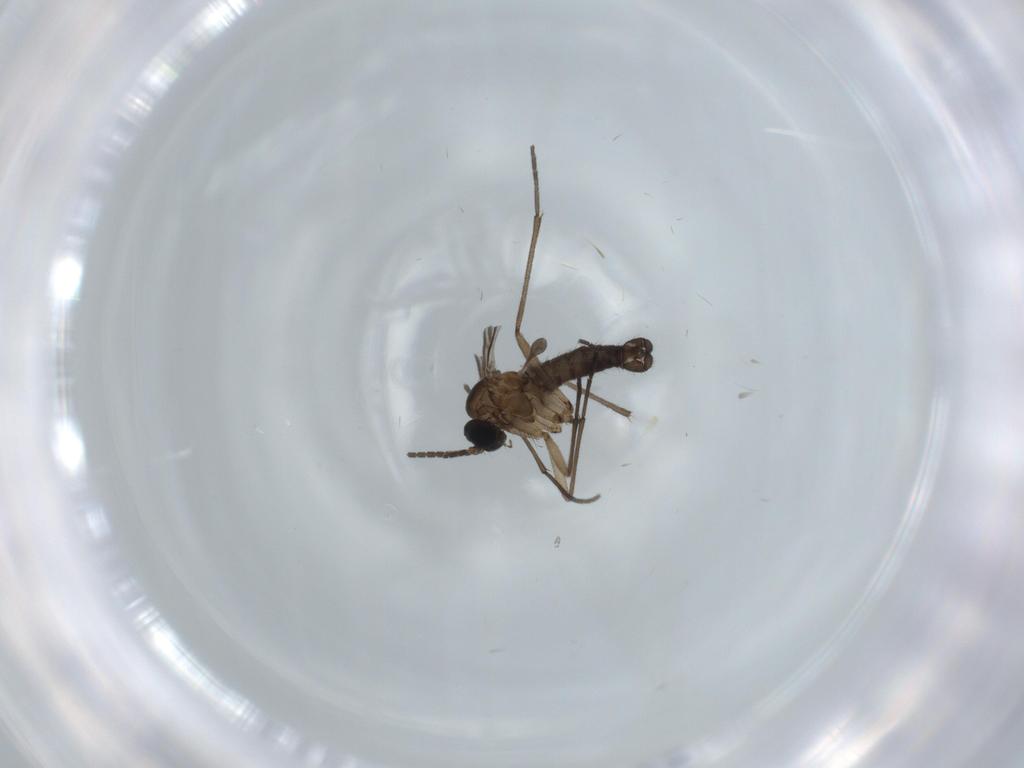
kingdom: Animalia
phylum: Arthropoda
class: Insecta
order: Diptera
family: Sciaridae
